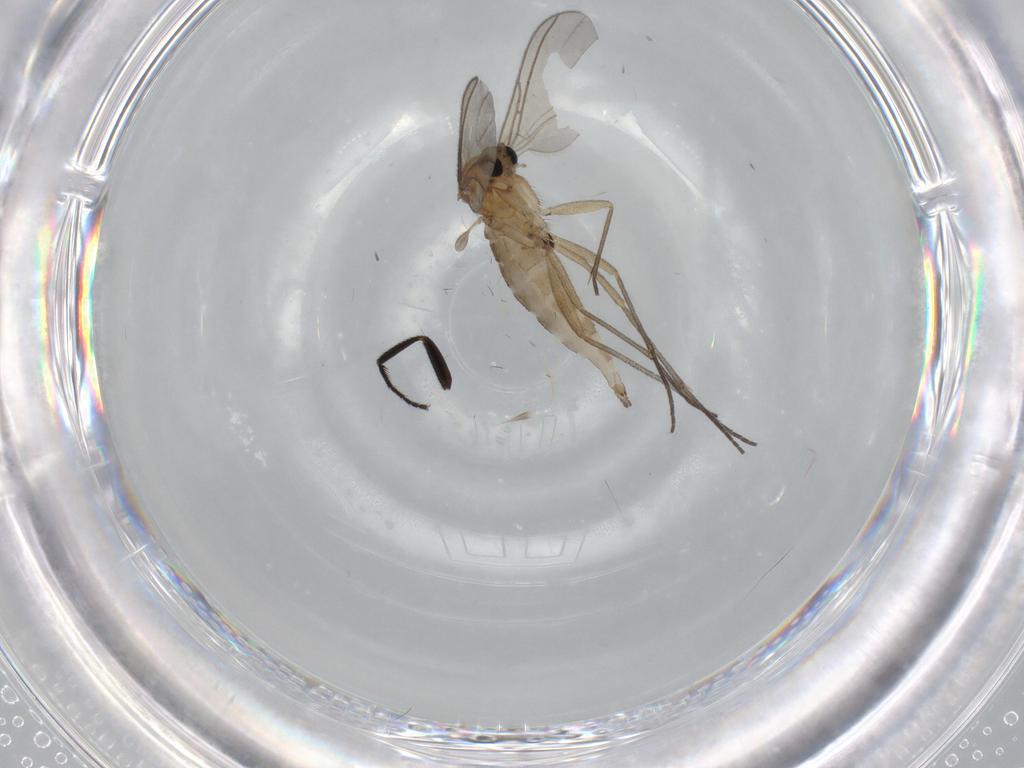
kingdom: Animalia
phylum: Arthropoda
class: Insecta
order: Diptera
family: Sciaridae
